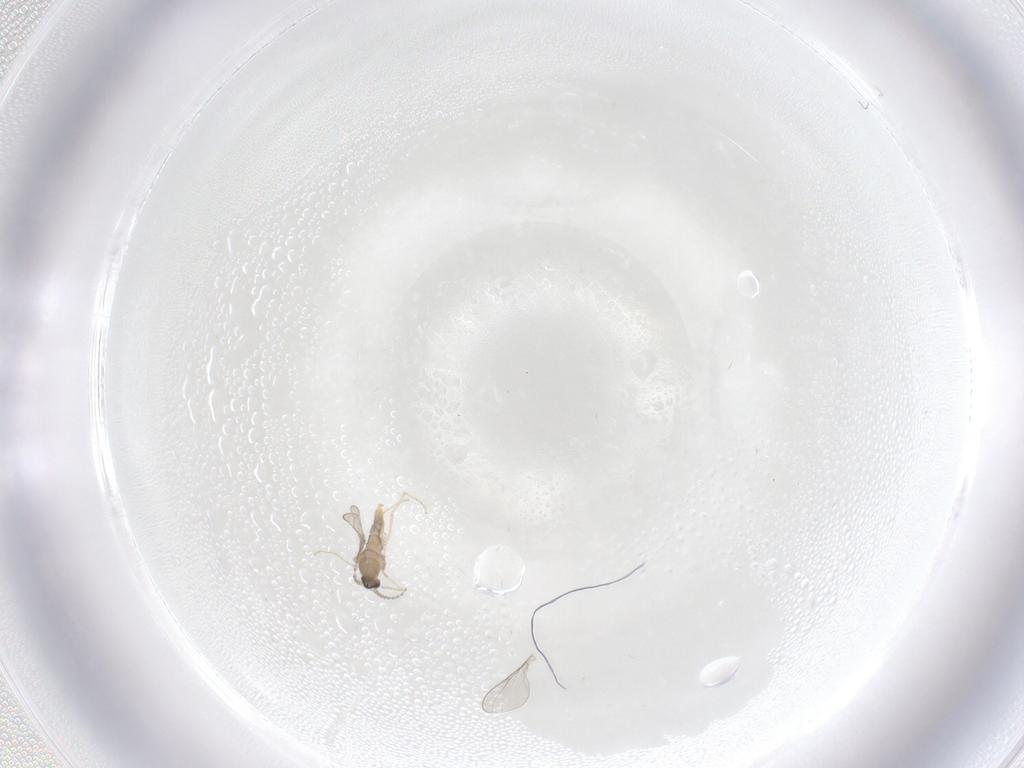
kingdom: Animalia
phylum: Arthropoda
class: Insecta
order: Diptera
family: Cecidomyiidae
